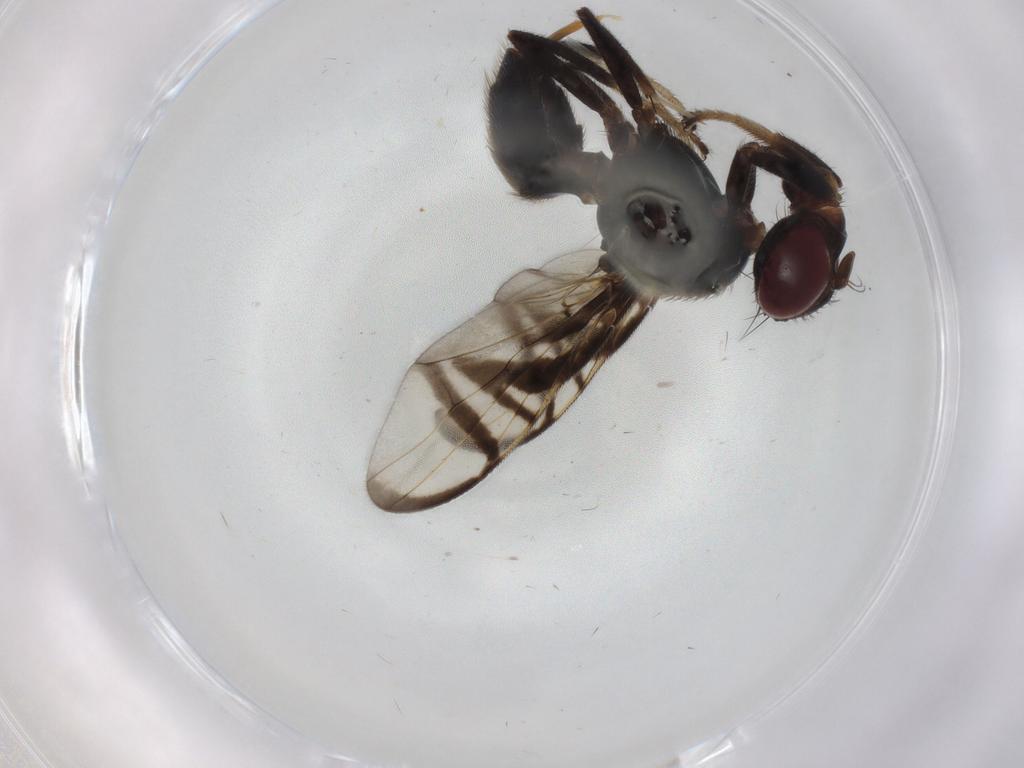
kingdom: Animalia
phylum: Arthropoda
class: Insecta
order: Diptera
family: Anisopodidae
